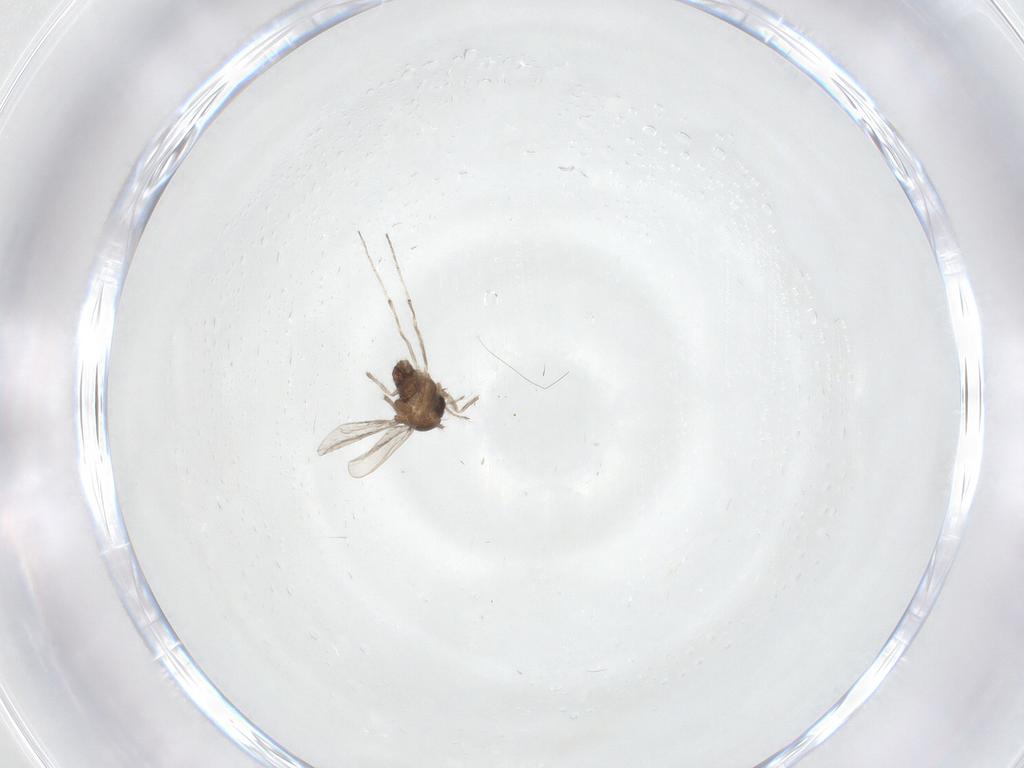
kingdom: Animalia
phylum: Arthropoda
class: Insecta
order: Diptera
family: Chironomidae
